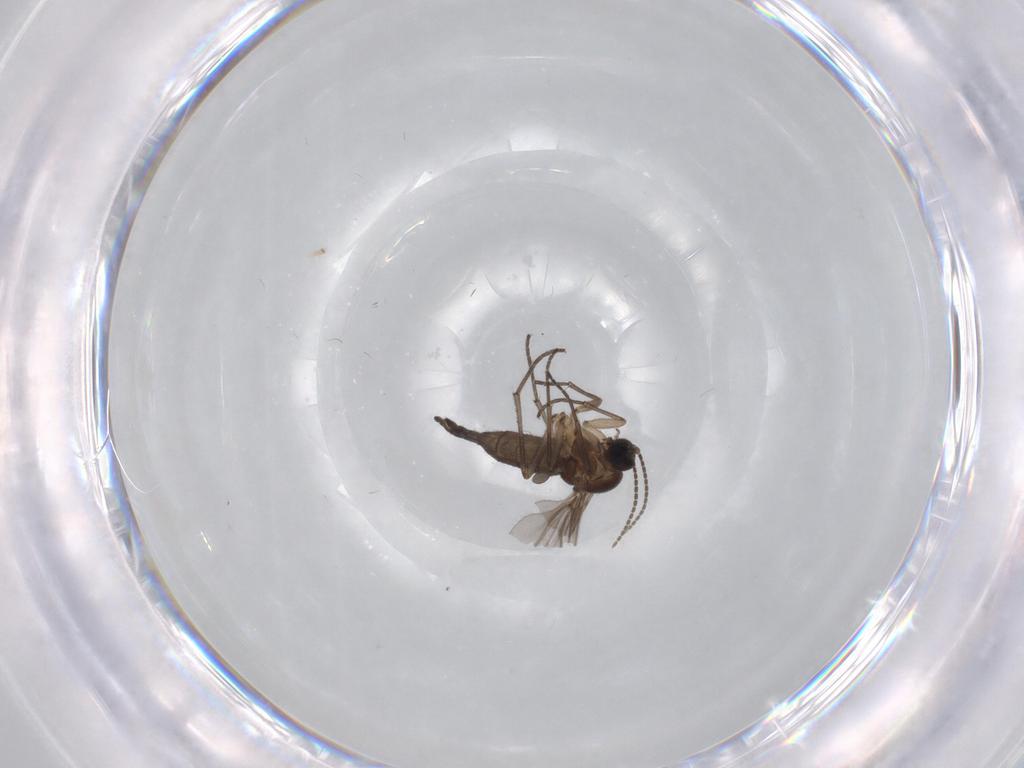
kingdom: Animalia
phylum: Arthropoda
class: Insecta
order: Diptera
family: Sciaridae
